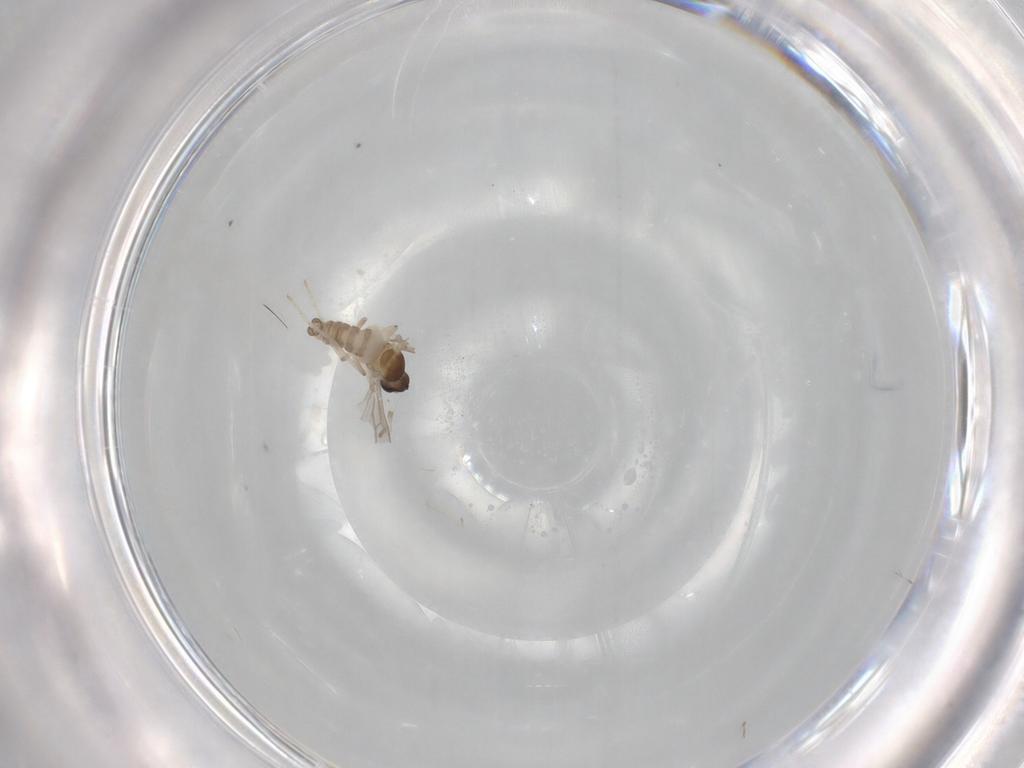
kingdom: Animalia
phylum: Arthropoda
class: Insecta
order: Diptera
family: Cecidomyiidae
